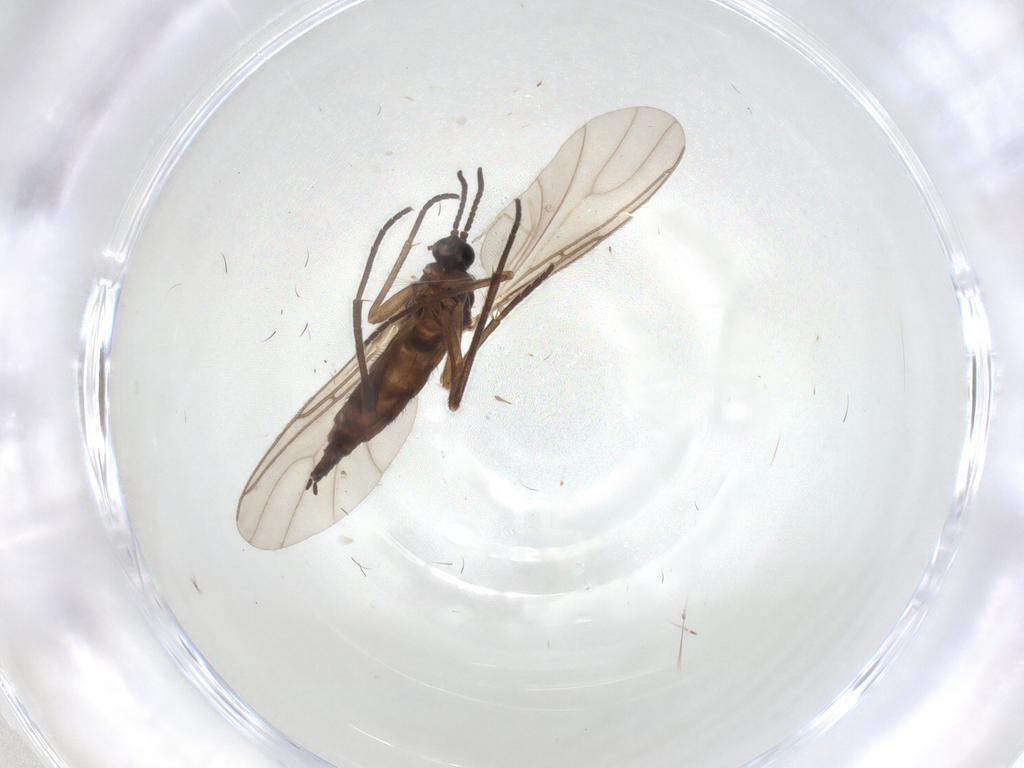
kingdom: Animalia
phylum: Arthropoda
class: Insecta
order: Diptera
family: Sciaridae
